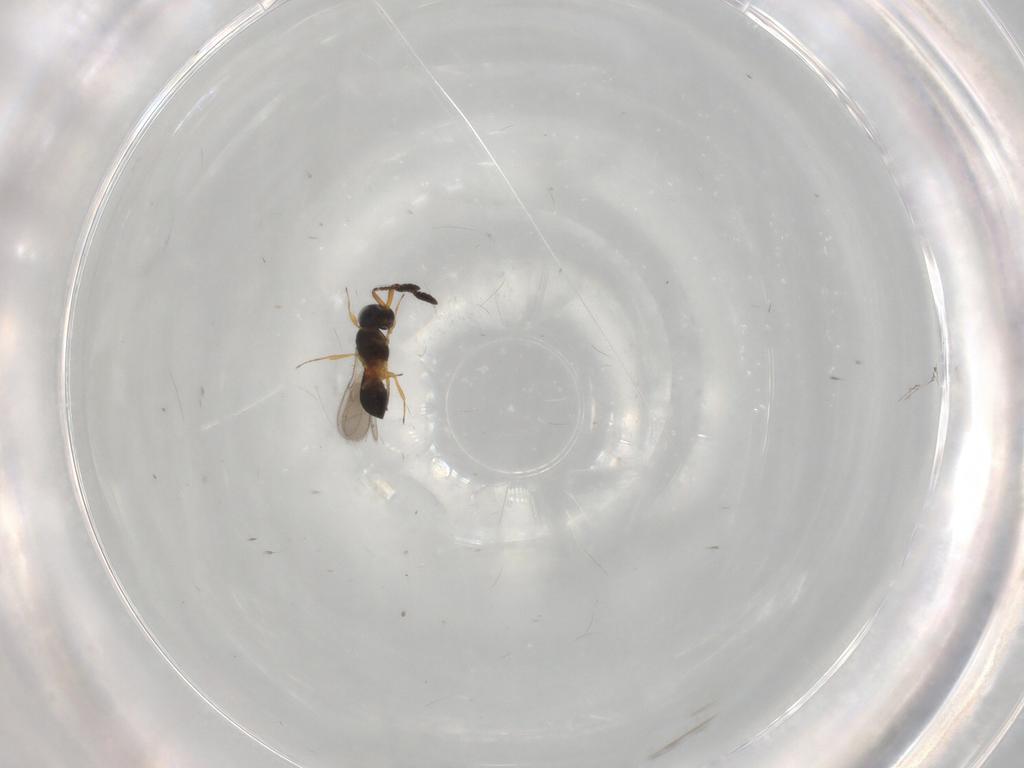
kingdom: Animalia
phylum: Arthropoda
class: Insecta
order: Hymenoptera
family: Scelionidae
